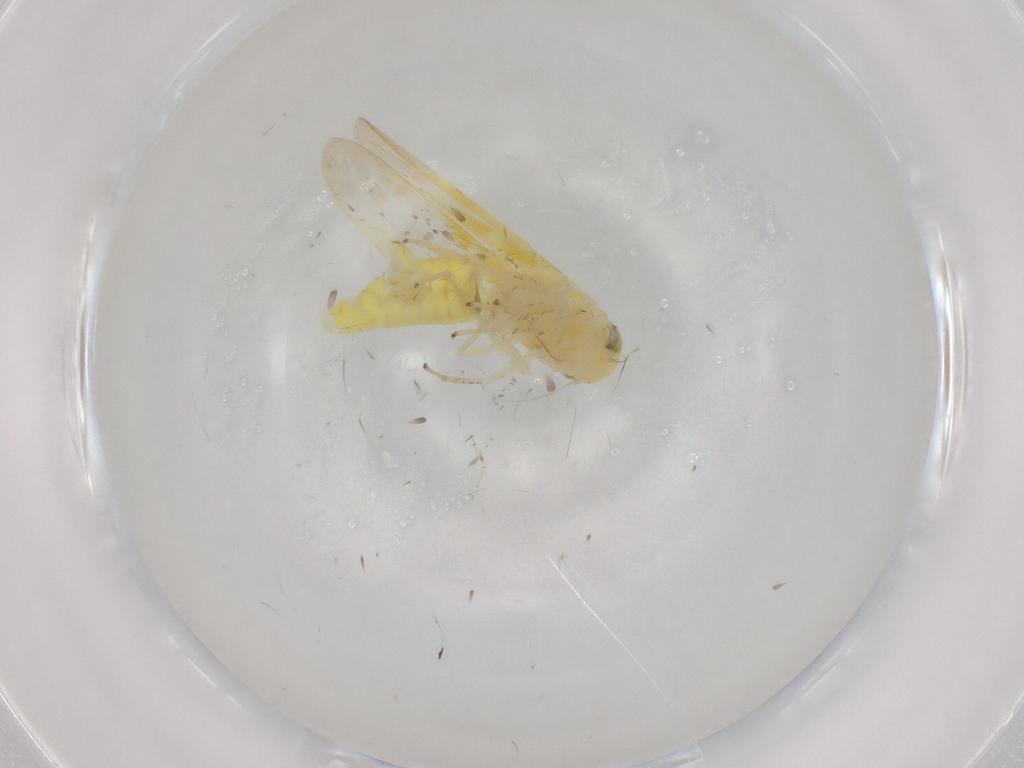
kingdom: Animalia
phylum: Arthropoda
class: Insecta
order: Hemiptera
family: Cicadellidae
